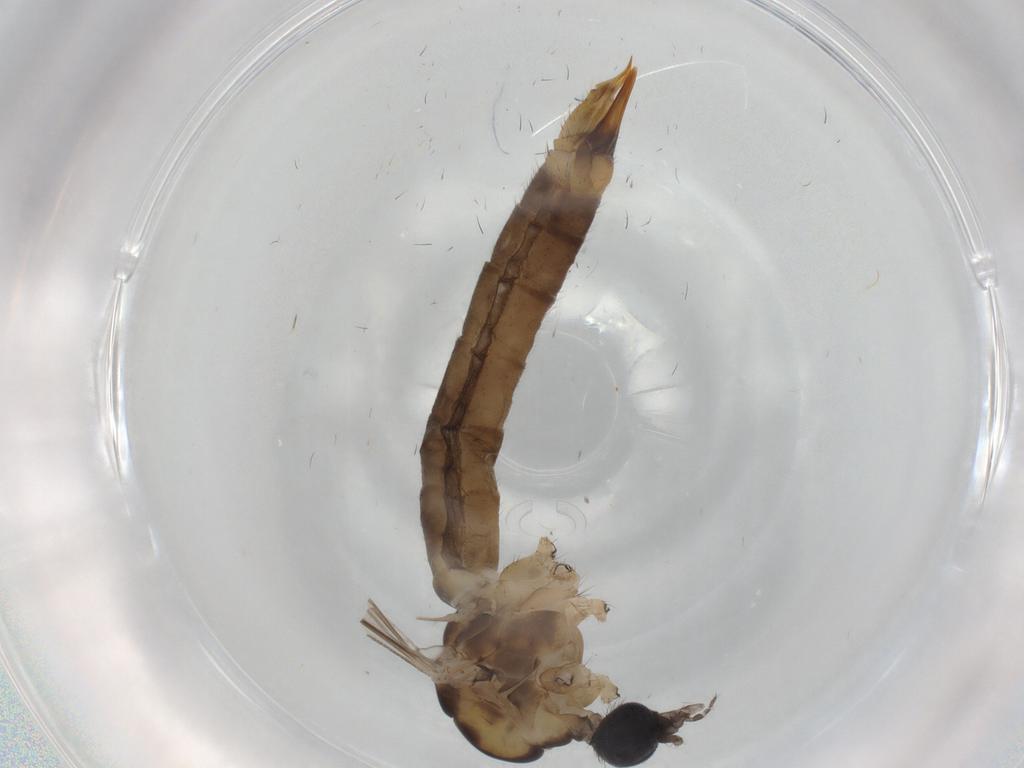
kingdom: Animalia
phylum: Arthropoda
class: Insecta
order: Diptera
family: Limoniidae
